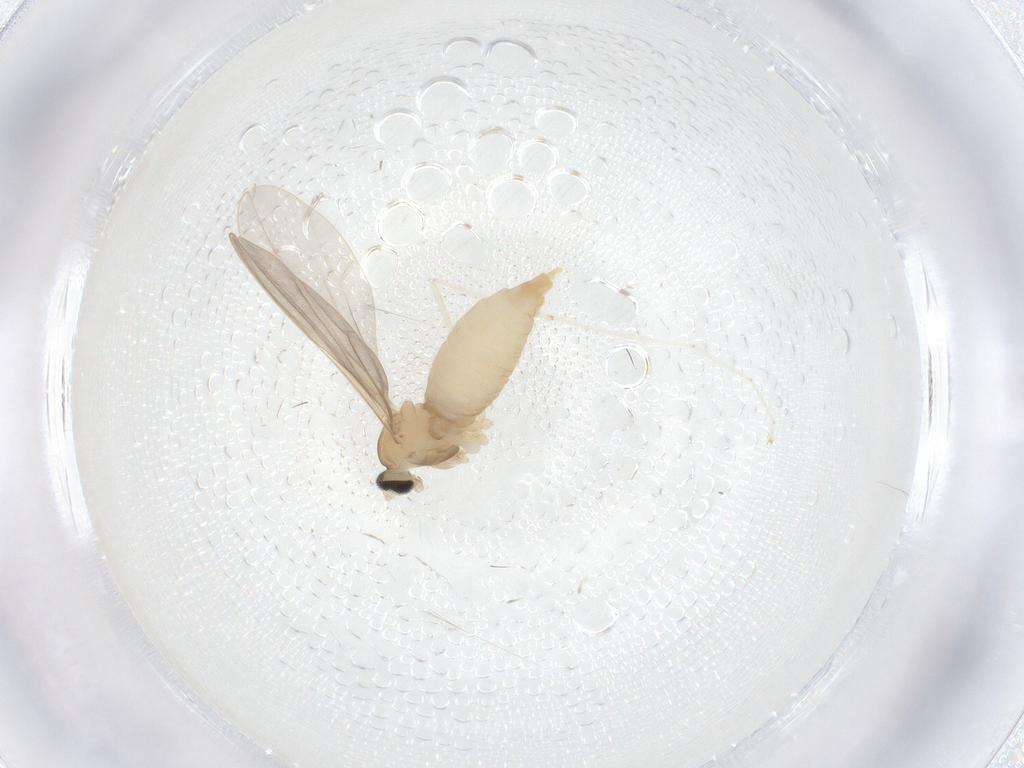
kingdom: Animalia
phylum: Arthropoda
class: Insecta
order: Diptera
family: Cecidomyiidae
